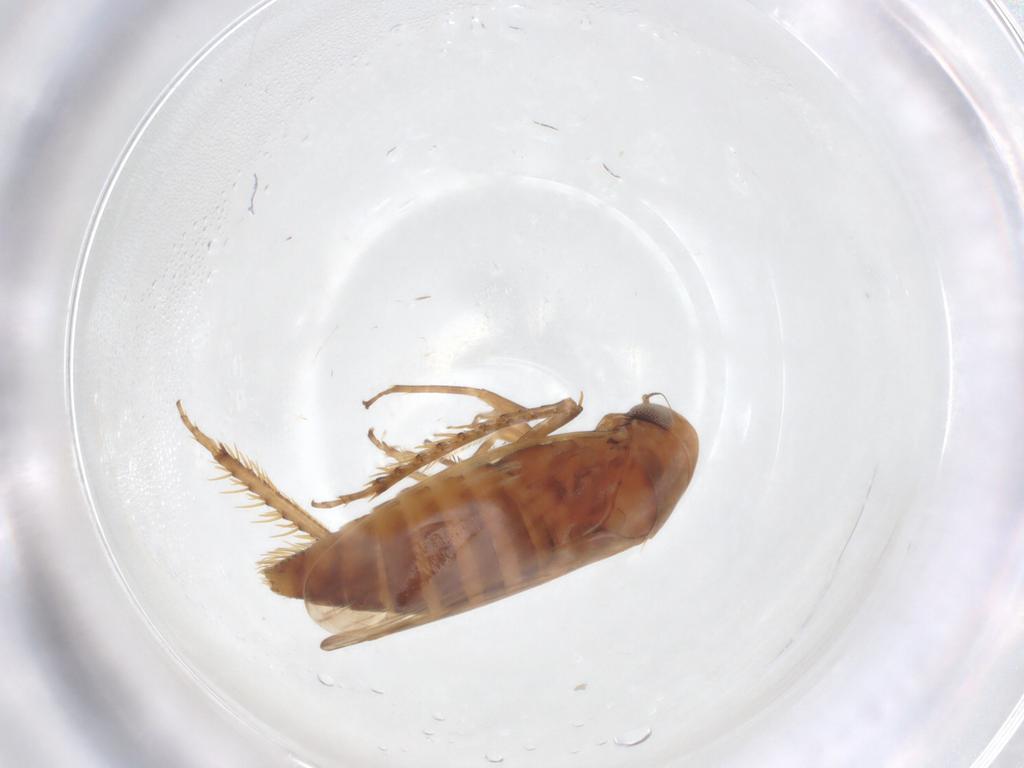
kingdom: Animalia
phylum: Arthropoda
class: Insecta
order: Hemiptera
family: Cicadellidae
